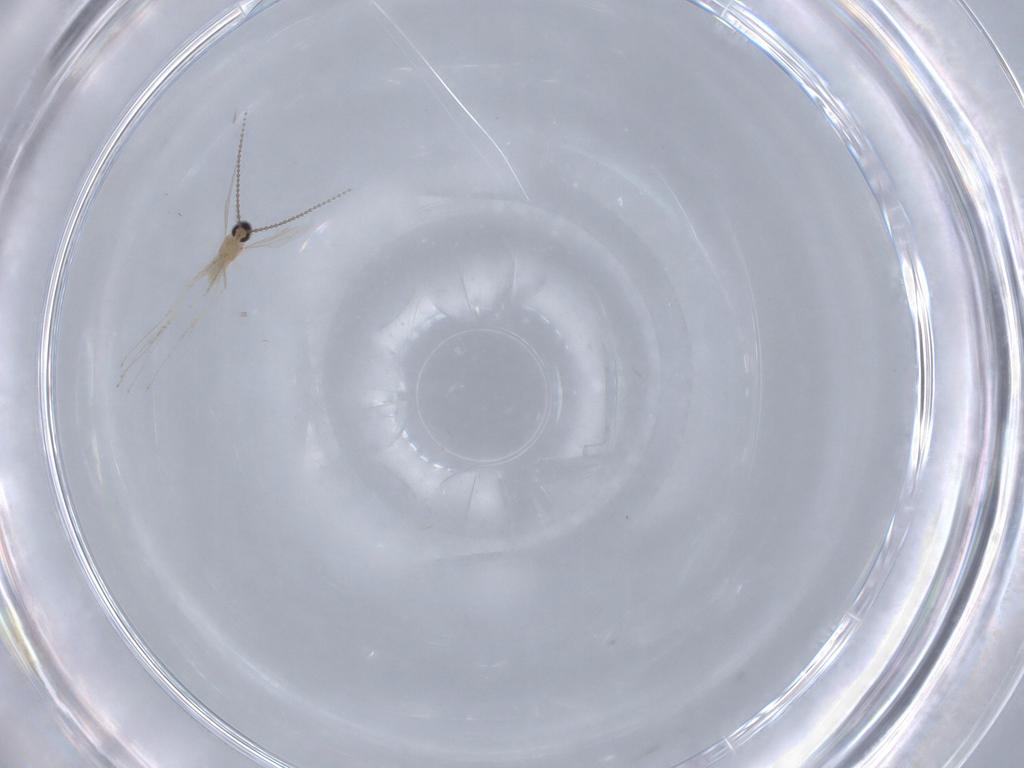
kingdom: Animalia
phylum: Arthropoda
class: Insecta
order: Diptera
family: Cecidomyiidae
